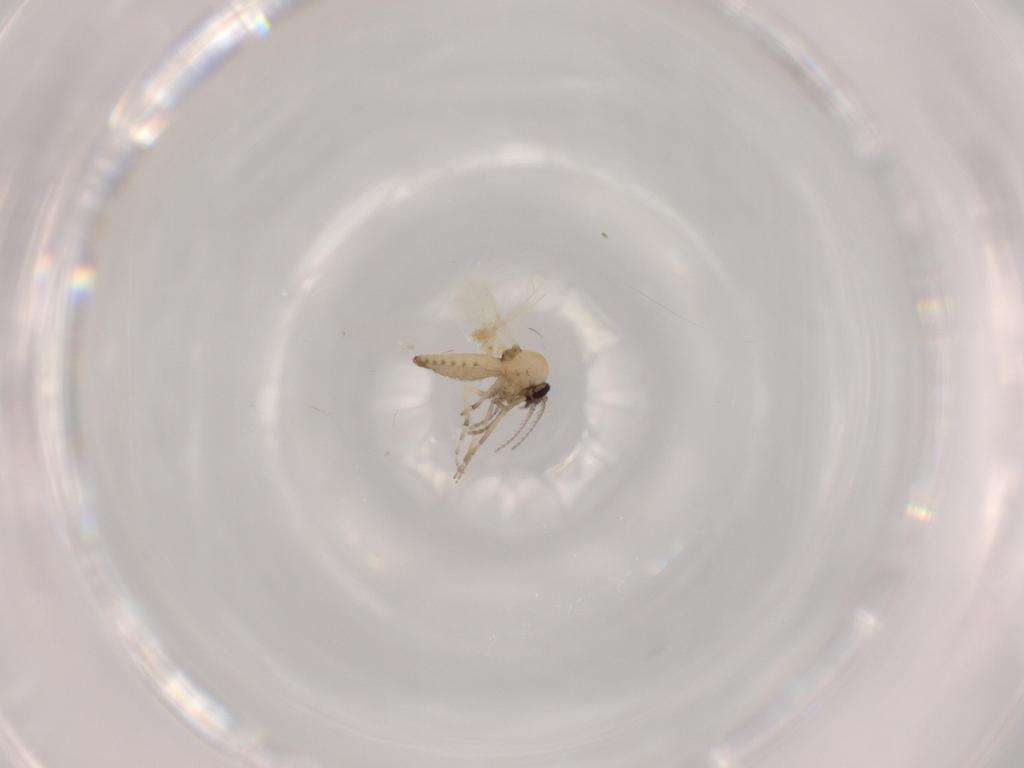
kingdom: Animalia
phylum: Arthropoda
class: Insecta
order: Diptera
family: Ceratopogonidae
